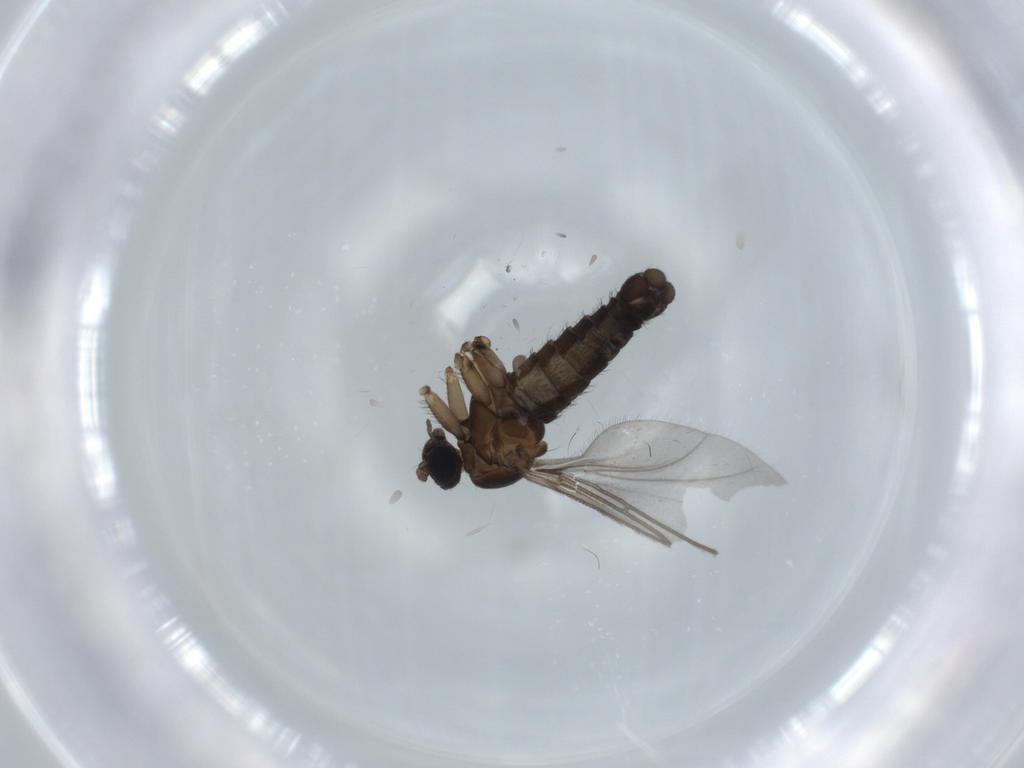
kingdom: Animalia
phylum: Arthropoda
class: Insecta
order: Diptera
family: Sciaridae
